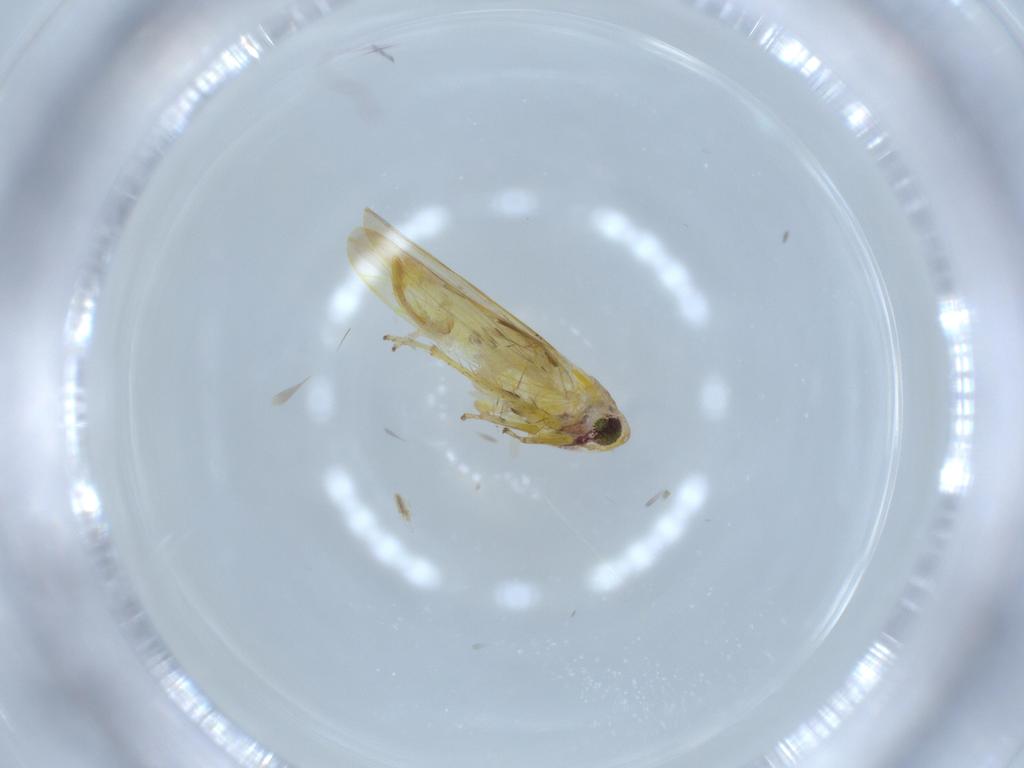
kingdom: Animalia
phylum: Arthropoda
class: Insecta
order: Hemiptera
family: Cicadellidae
